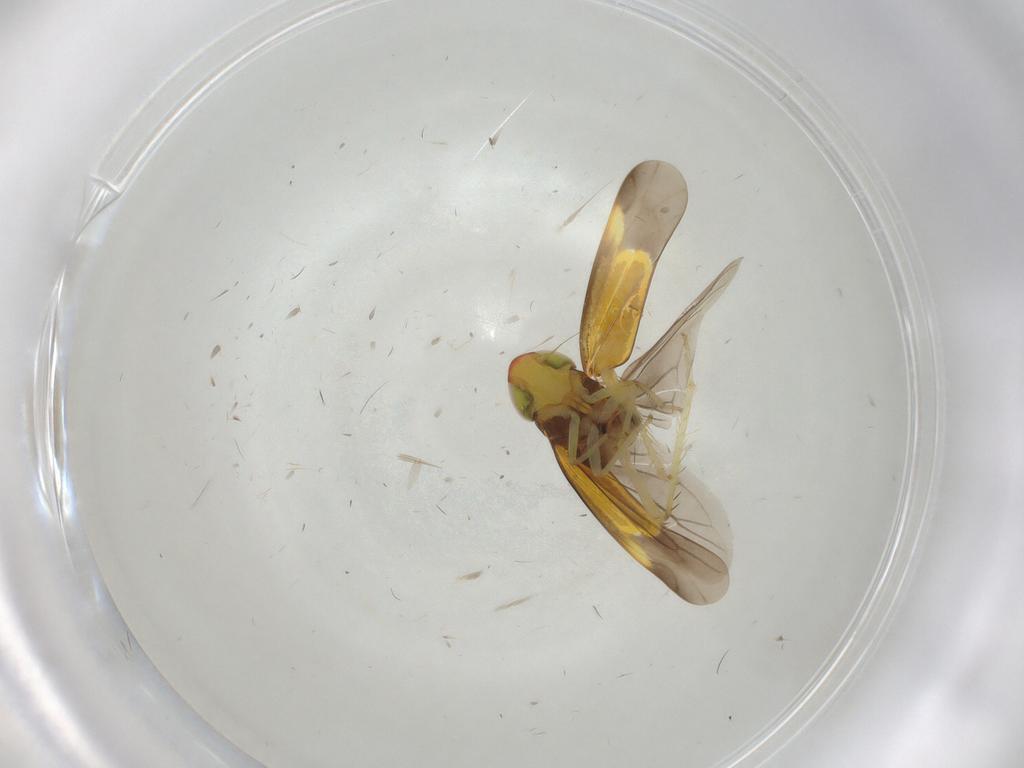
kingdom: Animalia
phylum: Arthropoda
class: Insecta
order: Hemiptera
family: Cicadellidae
